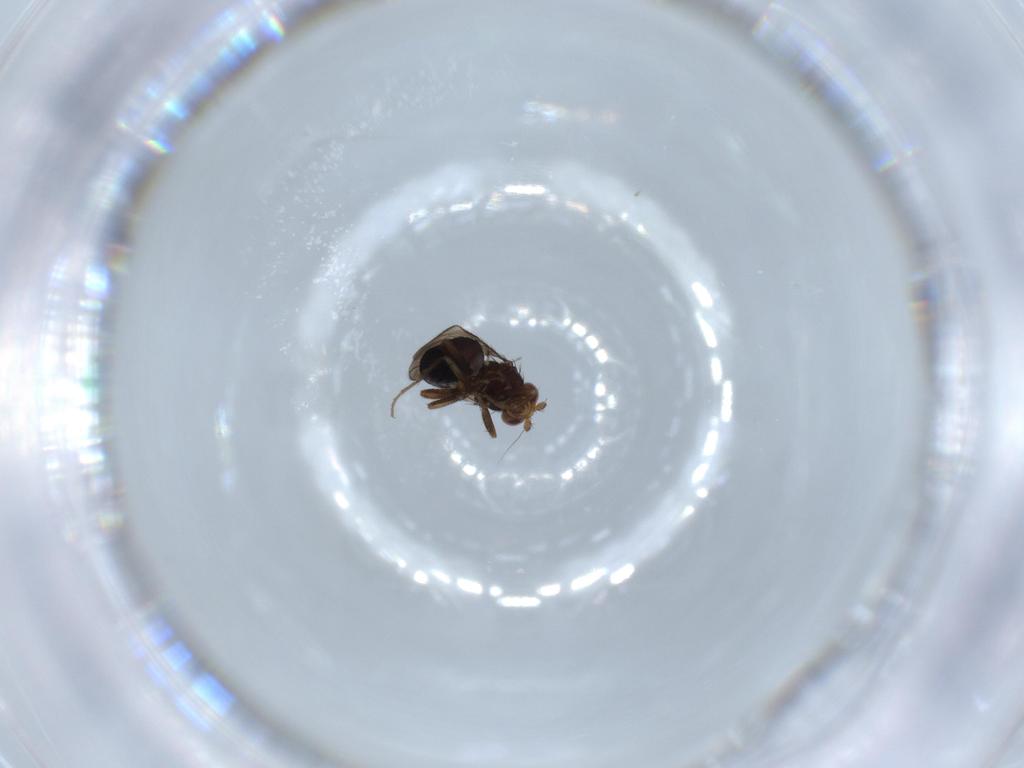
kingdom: Animalia
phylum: Arthropoda
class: Insecta
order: Diptera
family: Sphaeroceridae
